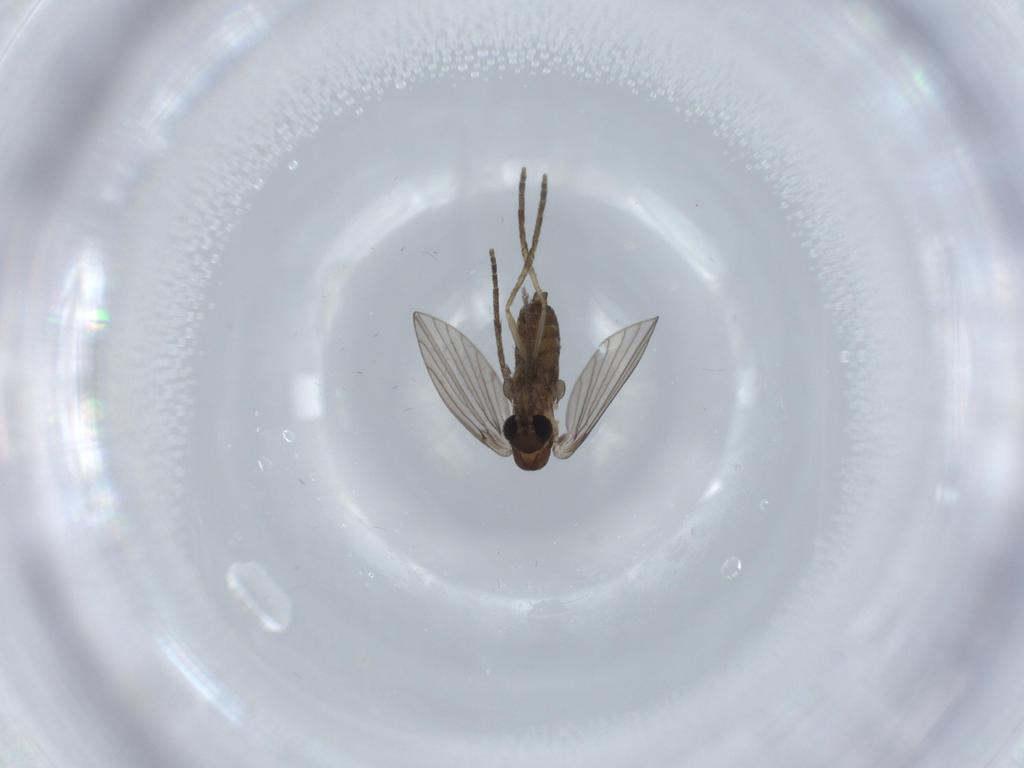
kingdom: Animalia
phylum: Arthropoda
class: Insecta
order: Diptera
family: Psychodidae
